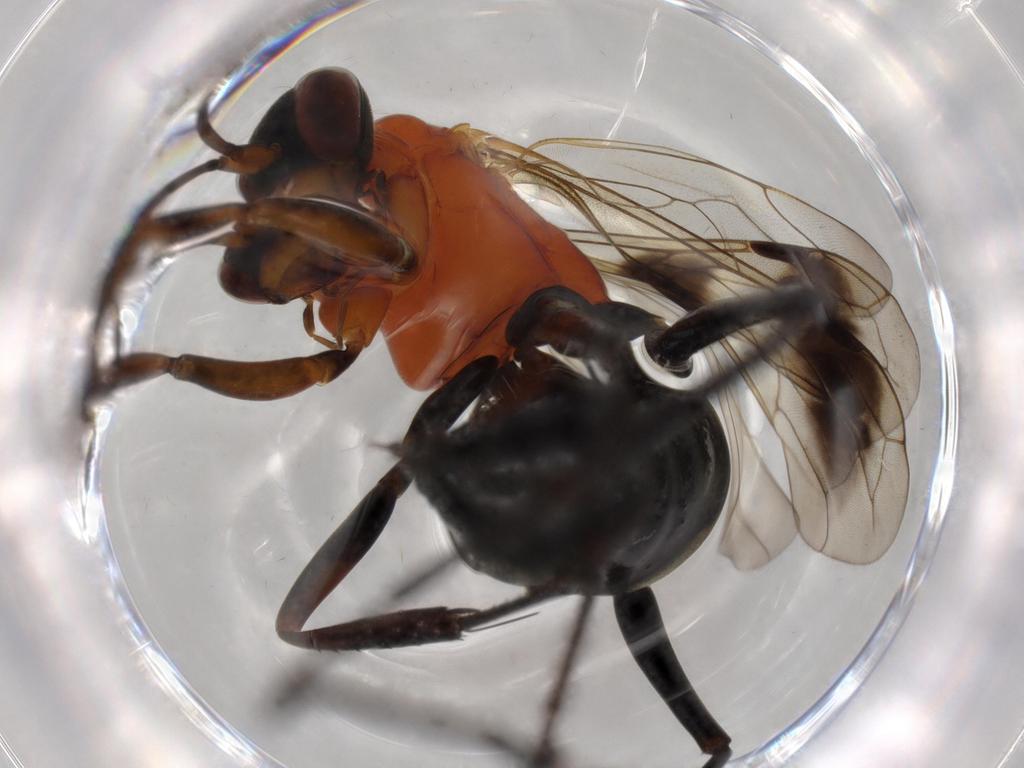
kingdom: Animalia
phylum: Arthropoda
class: Insecta
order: Hymenoptera
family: Pompilidae
